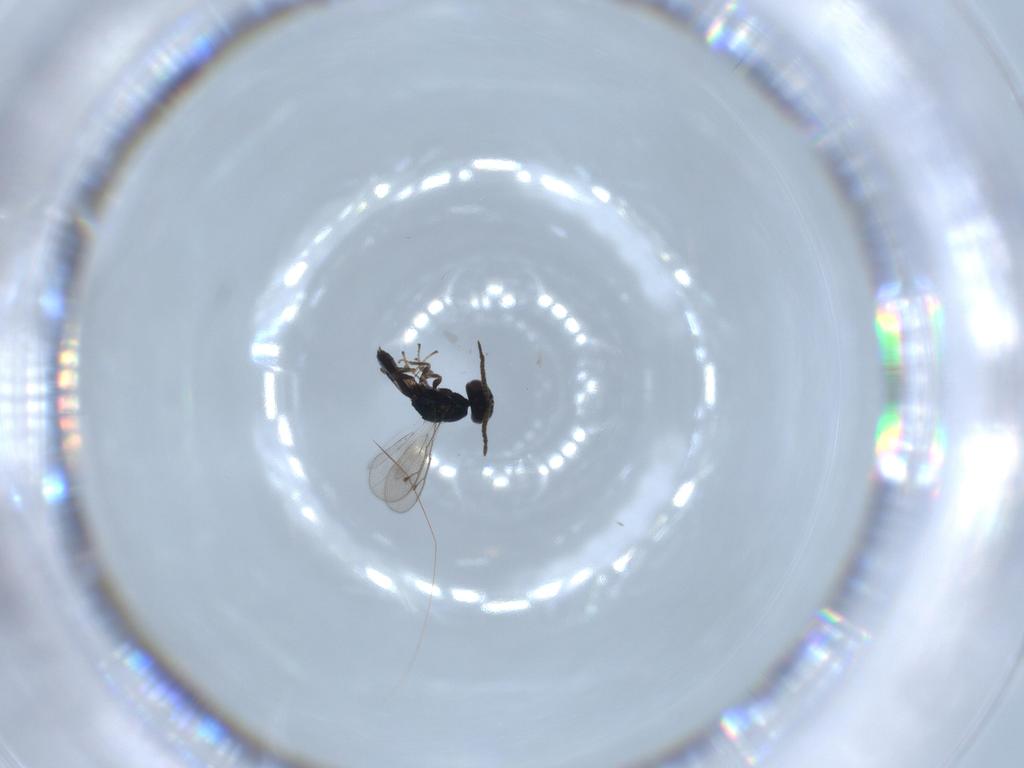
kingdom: Animalia
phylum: Arthropoda
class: Insecta
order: Hymenoptera
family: Pteromalidae
